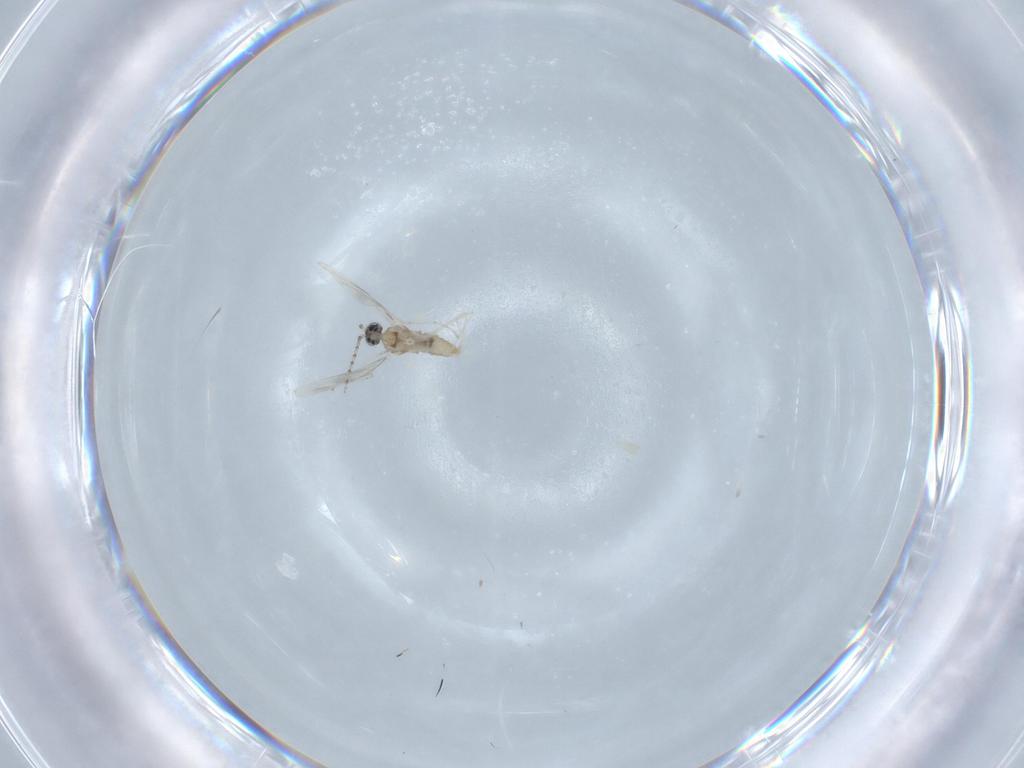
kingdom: Animalia
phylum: Arthropoda
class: Insecta
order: Diptera
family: Cecidomyiidae
